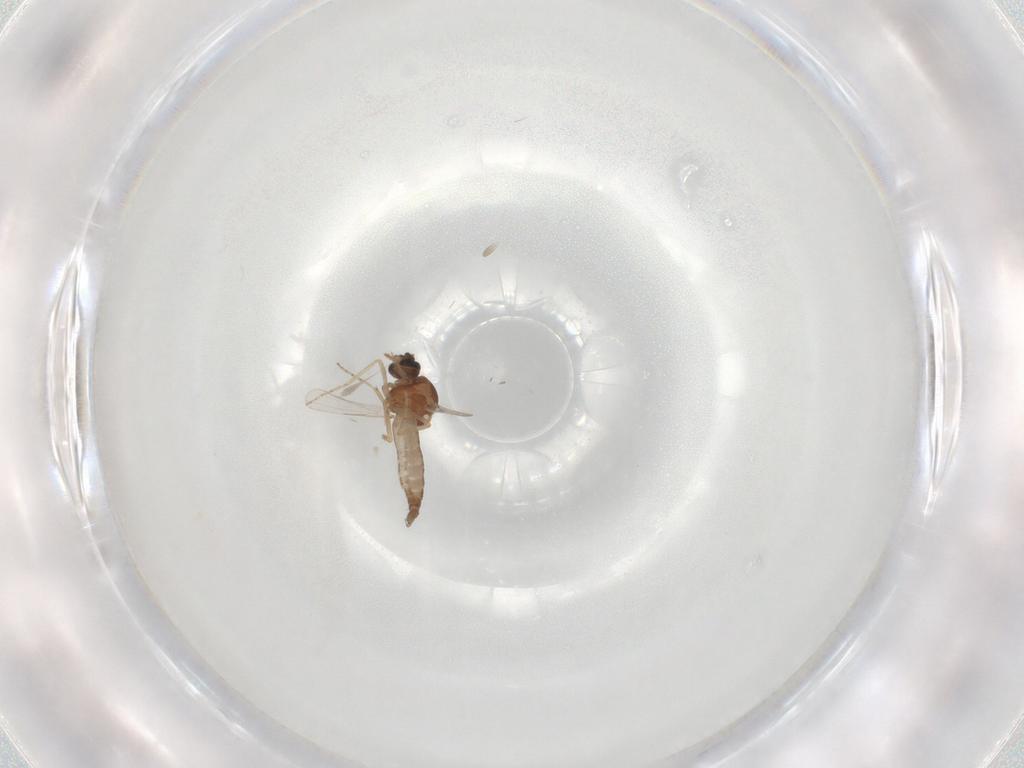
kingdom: Animalia
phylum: Arthropoda
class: Insecta
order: Diptera
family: Ceratopogonidae
